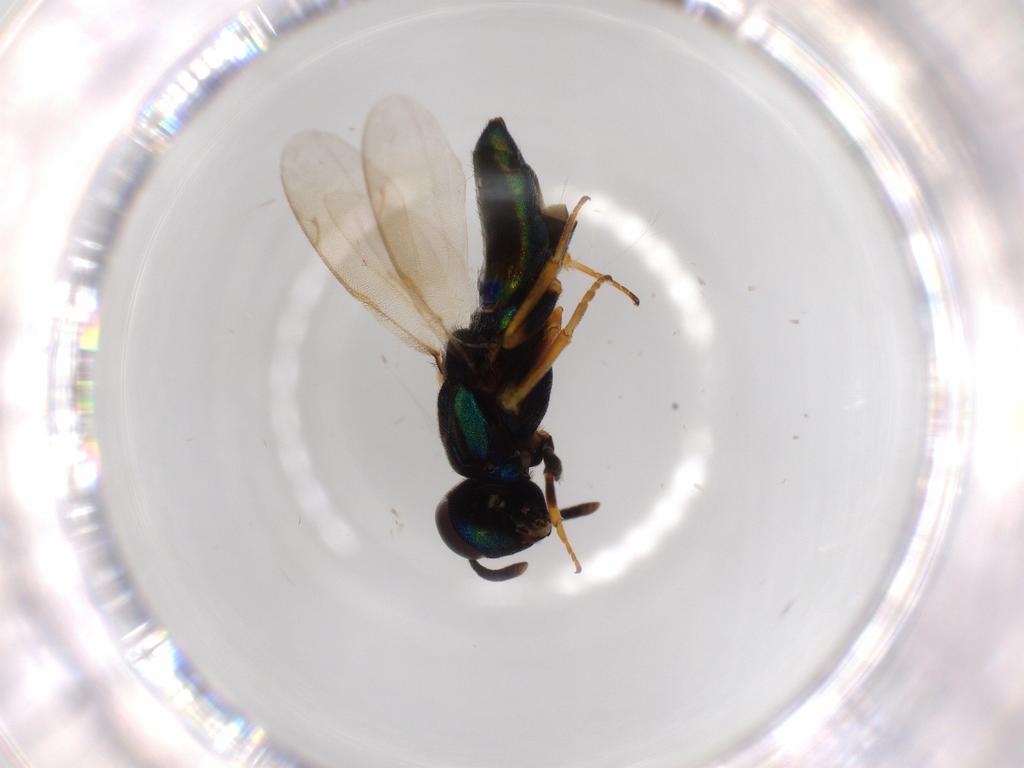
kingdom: Animalia
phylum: Arthropoda
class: Insecta
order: Hymenoptera
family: Eupelmidae
